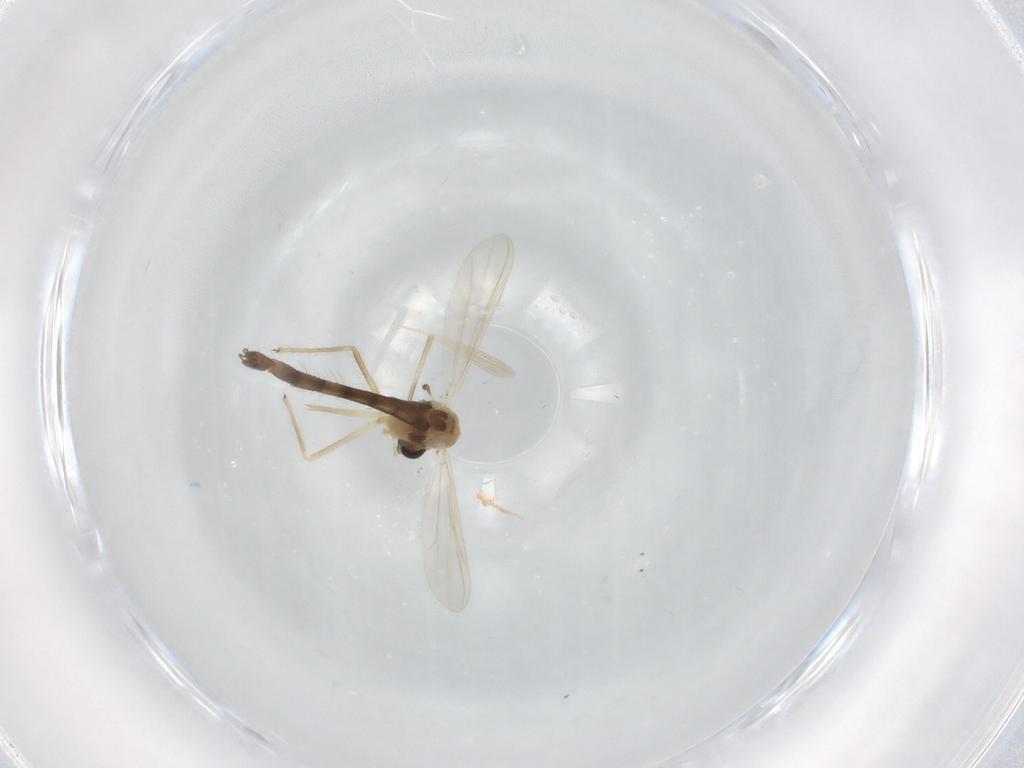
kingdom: Animalia
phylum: Arthropoda
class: Insecta
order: Diptera
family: Chironomidae
